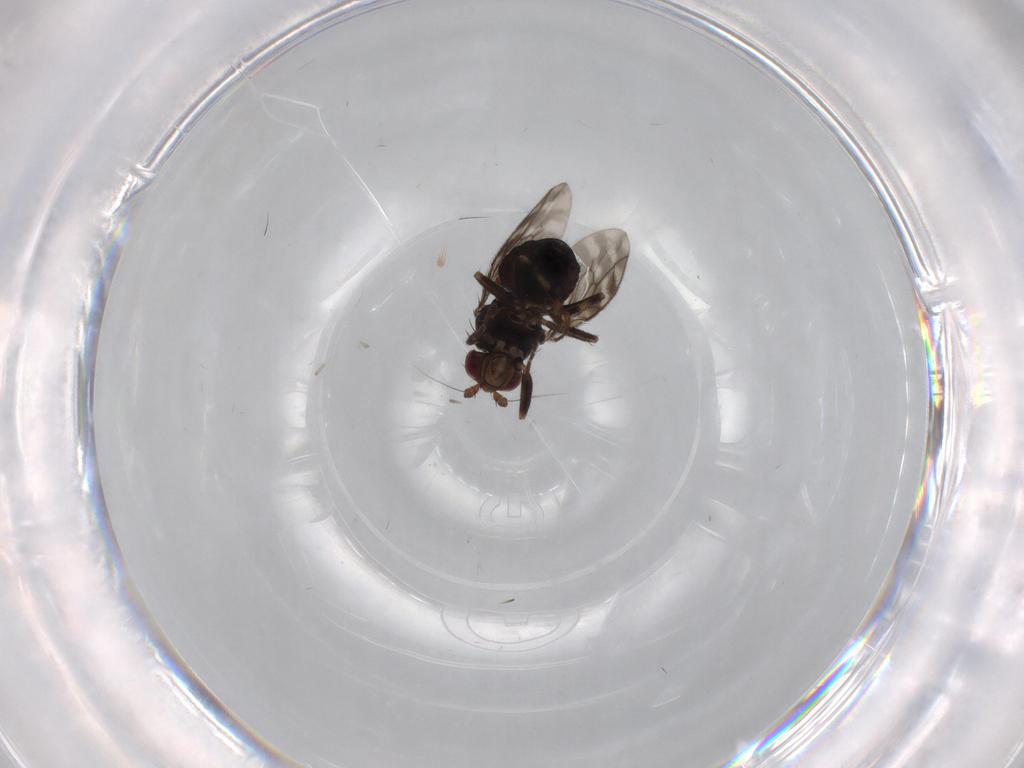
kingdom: Animalia
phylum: Arthropoda
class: Insecta
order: Diptera
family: Sphaeroceridae
